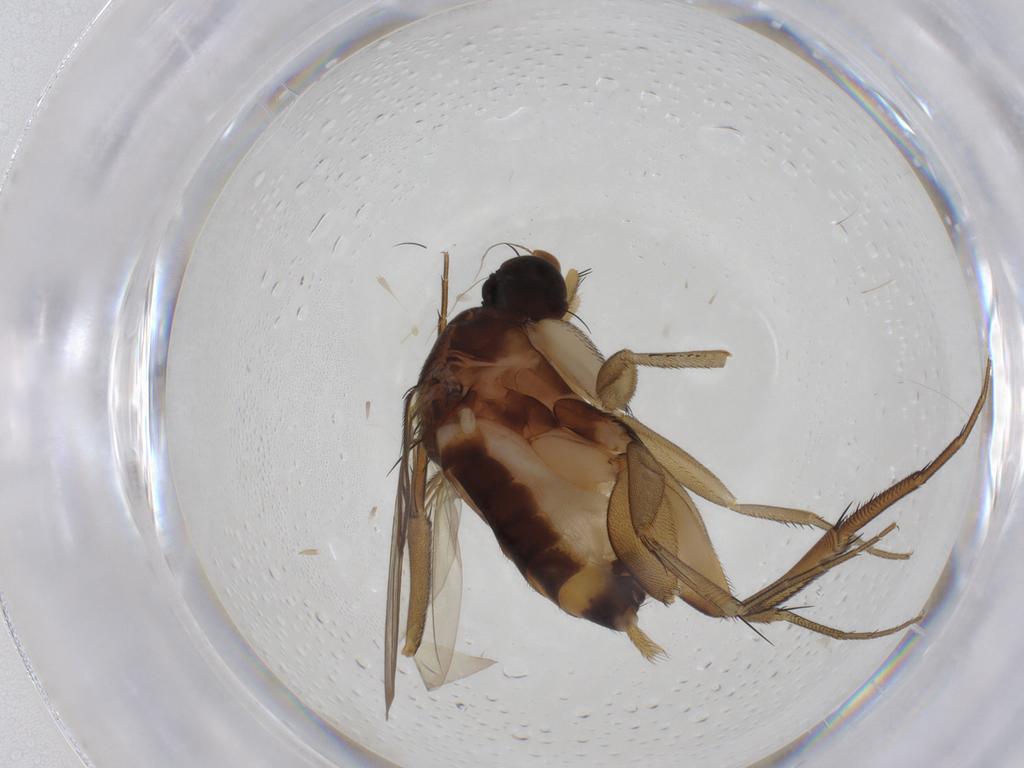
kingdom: Animalia
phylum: Arthropoda
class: Insecta
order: Diptera
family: Phoridae
